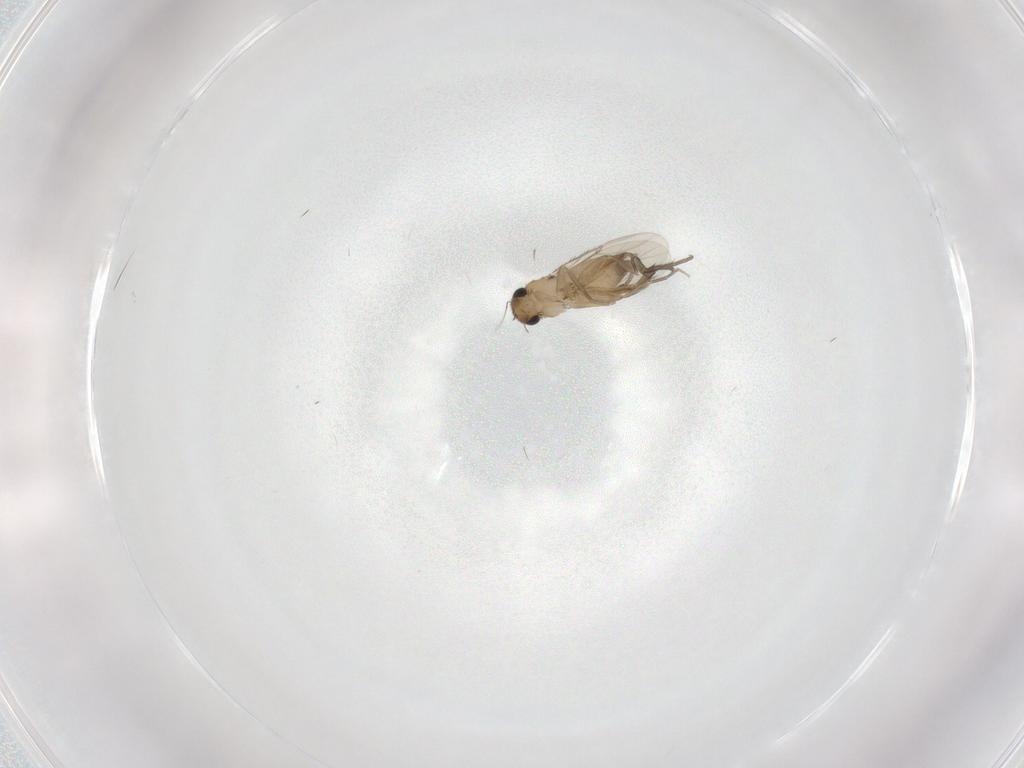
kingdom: Animalia
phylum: Arthropoda
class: Insecta
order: Diptera
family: Phoridae
